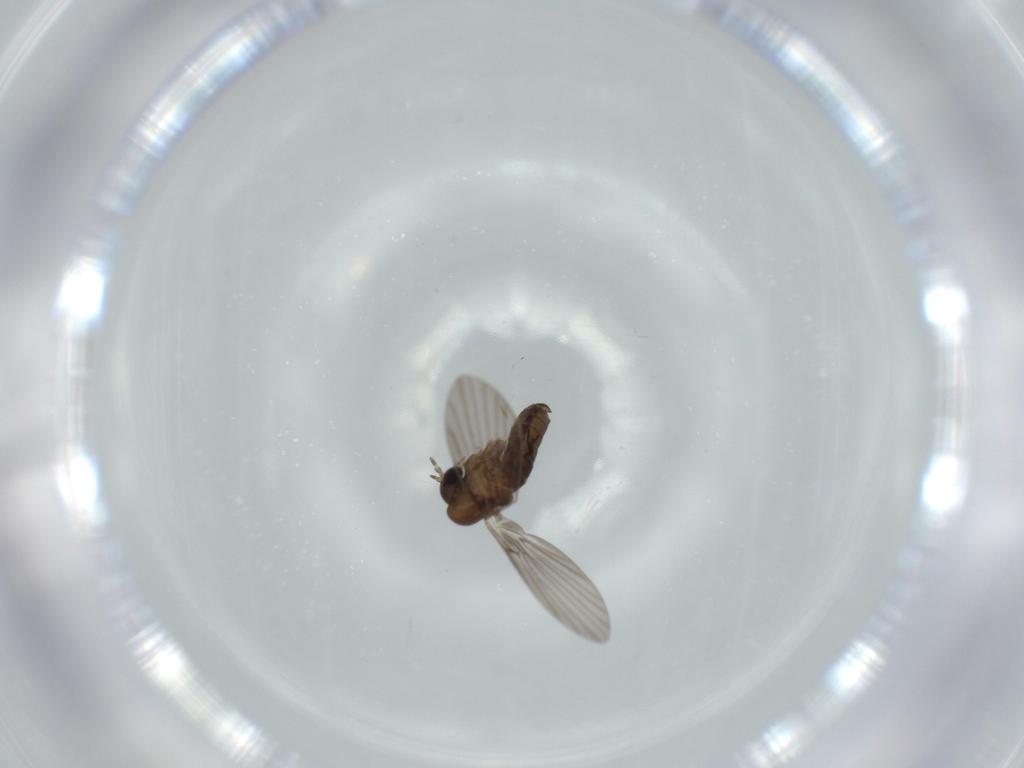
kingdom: Animalia
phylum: Arthropoda
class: Insecta
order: Diptera
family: Psychodidae
